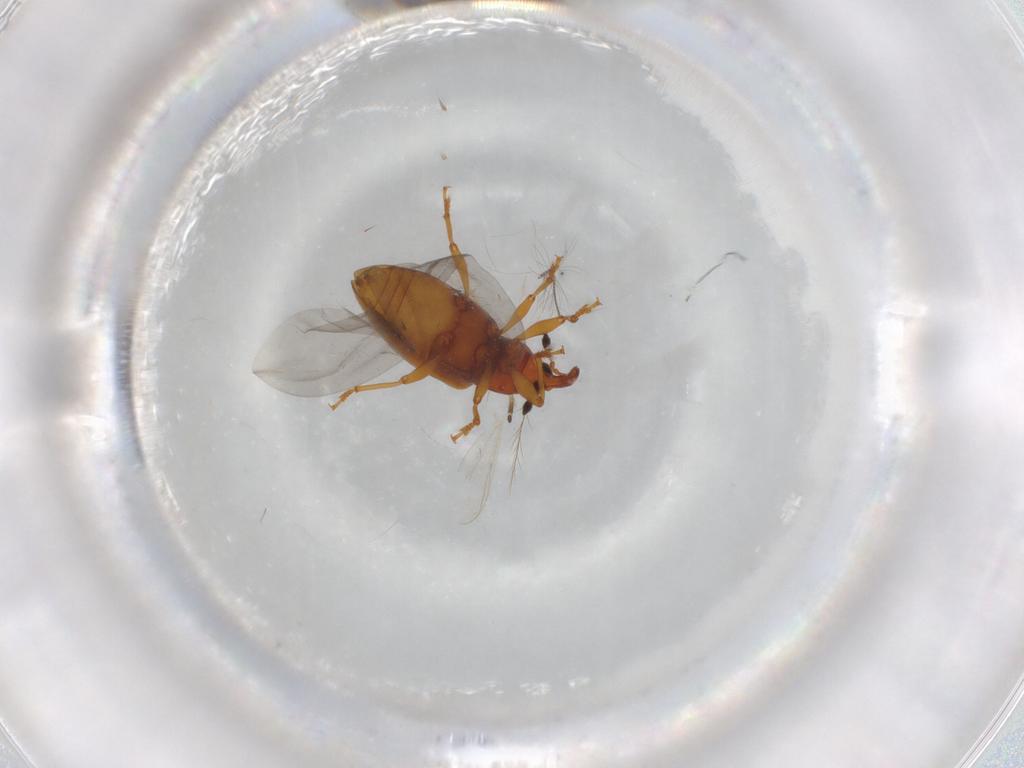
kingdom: Animalia
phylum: Arthropoda
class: Insecta
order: Coleoptera
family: Curculionidae
